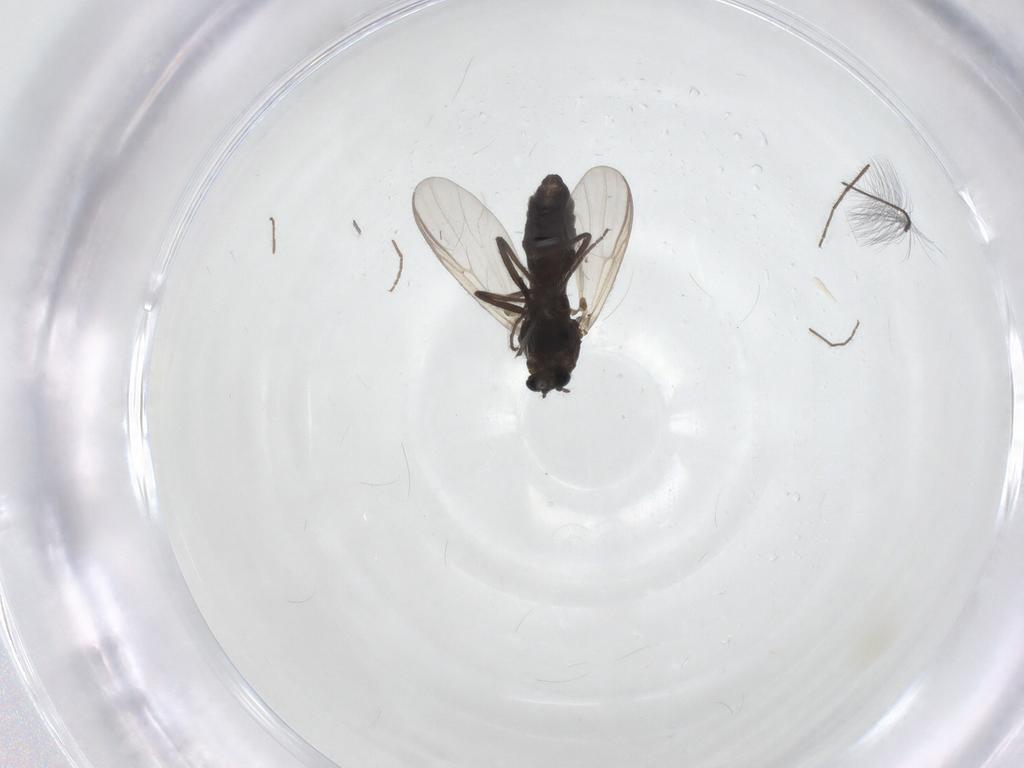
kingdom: Animalia
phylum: Arthropoda
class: Insecta
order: Diptera
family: Chironomidae
